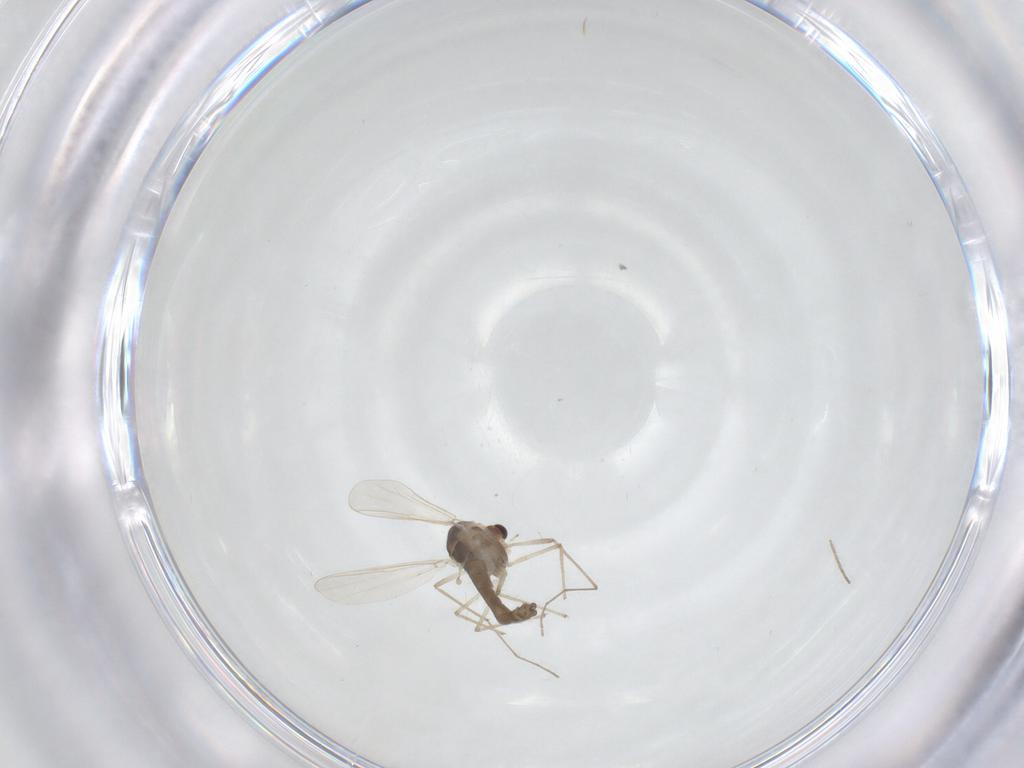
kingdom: Animalia
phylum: Arthropoda
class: Insecta
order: Diptera
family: Chironomidae
